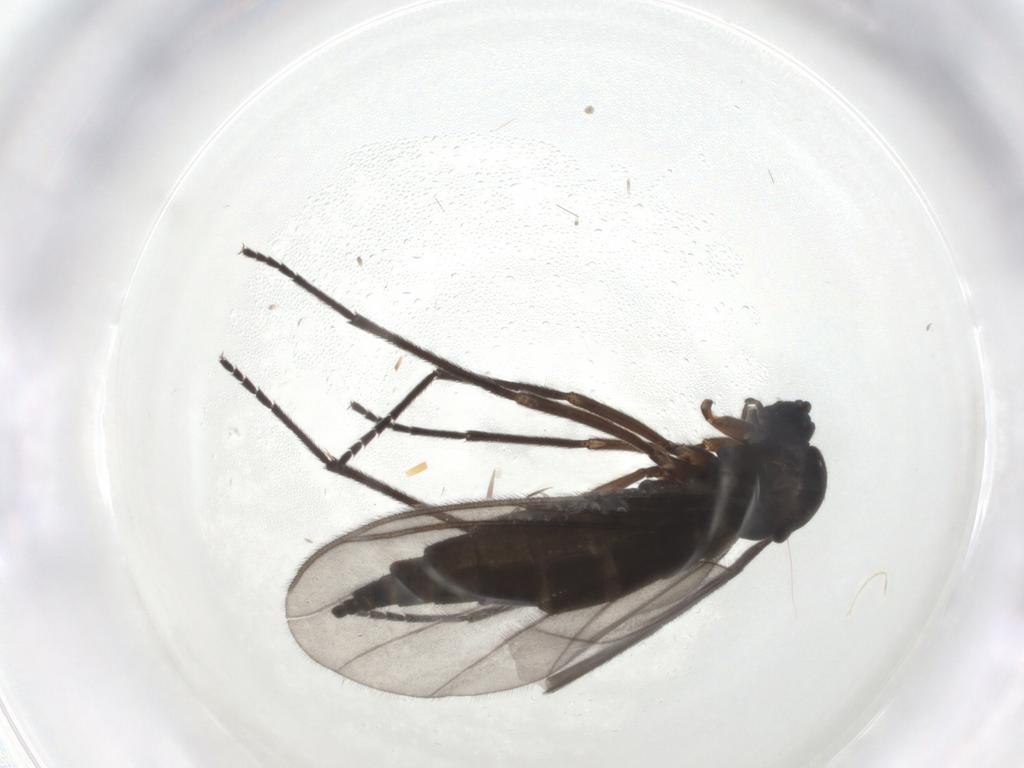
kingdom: Animalia
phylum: Arthropoda
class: Insecta
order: Diptera
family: Sciaridae
